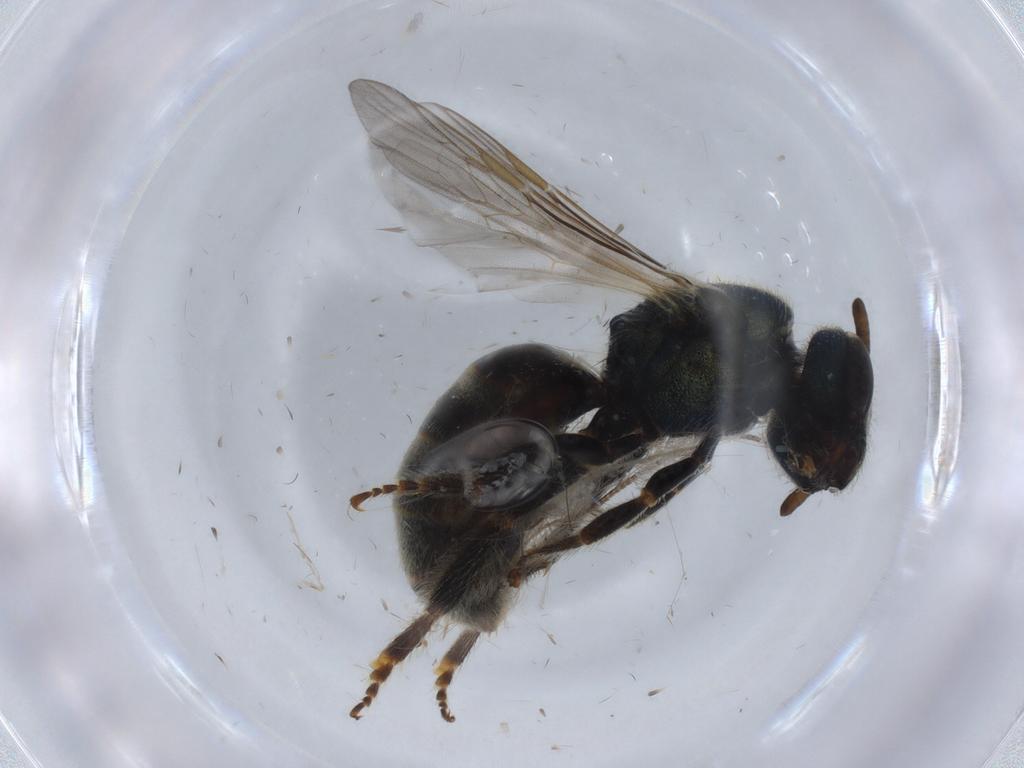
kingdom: Animalia
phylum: Arthropoda
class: Insecta
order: Hymenoptera
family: Halictidae
